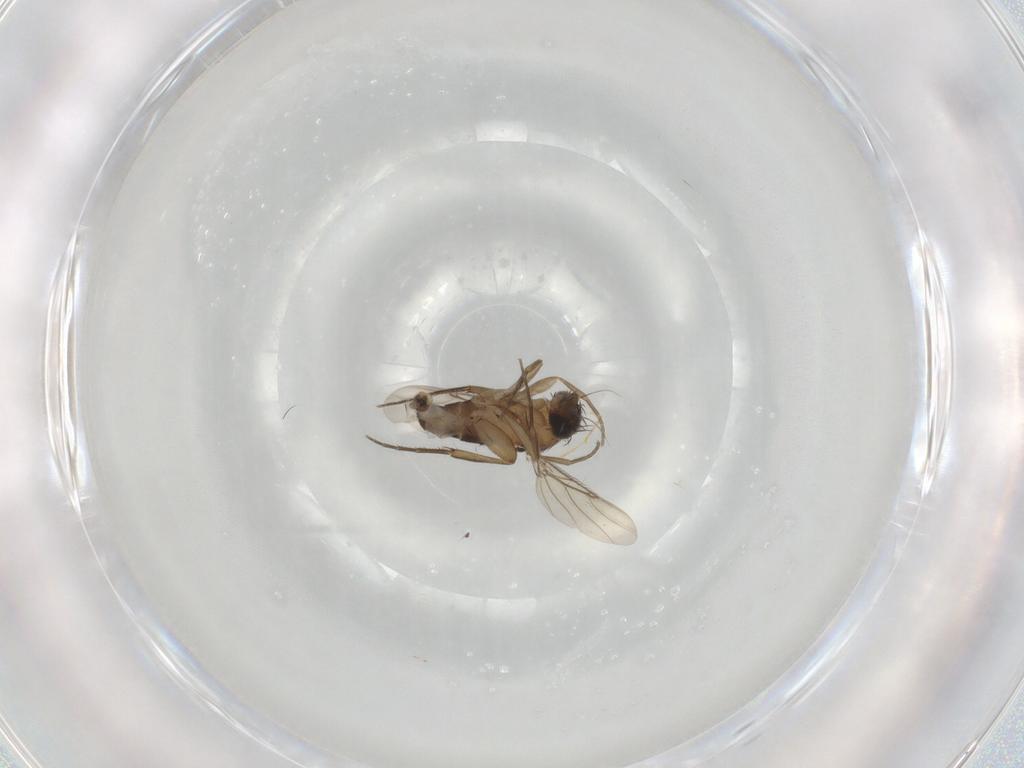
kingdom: Animalia
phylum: Arthropoda
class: Insecta
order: Diptera
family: Phoridae
